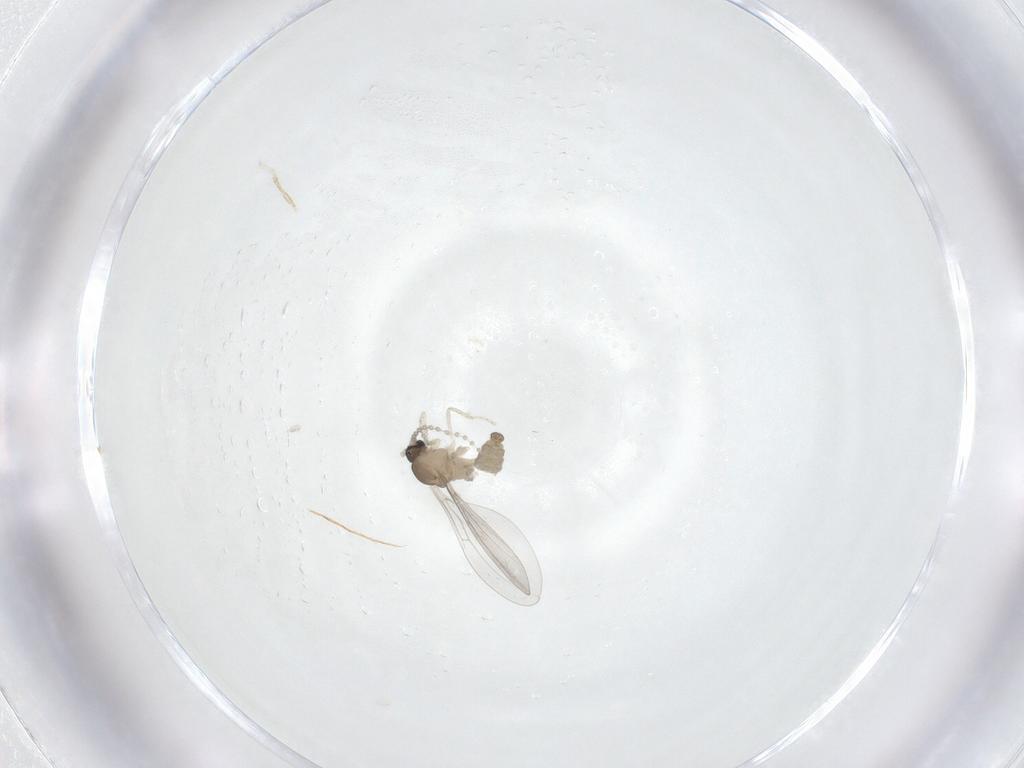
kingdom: Animalia
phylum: Arthropoda
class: Insecta
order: Diptera
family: Cecidomyiidae
